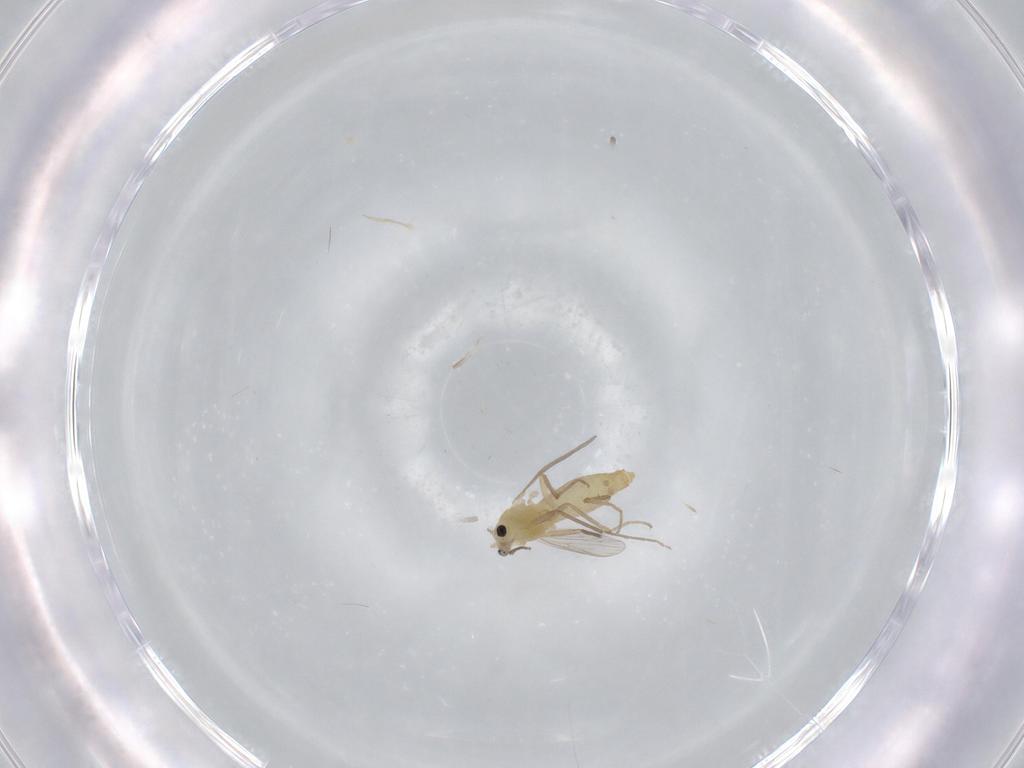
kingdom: Animalia
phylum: Arthropoda
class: Insecta
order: Diptera
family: Chironomidae
